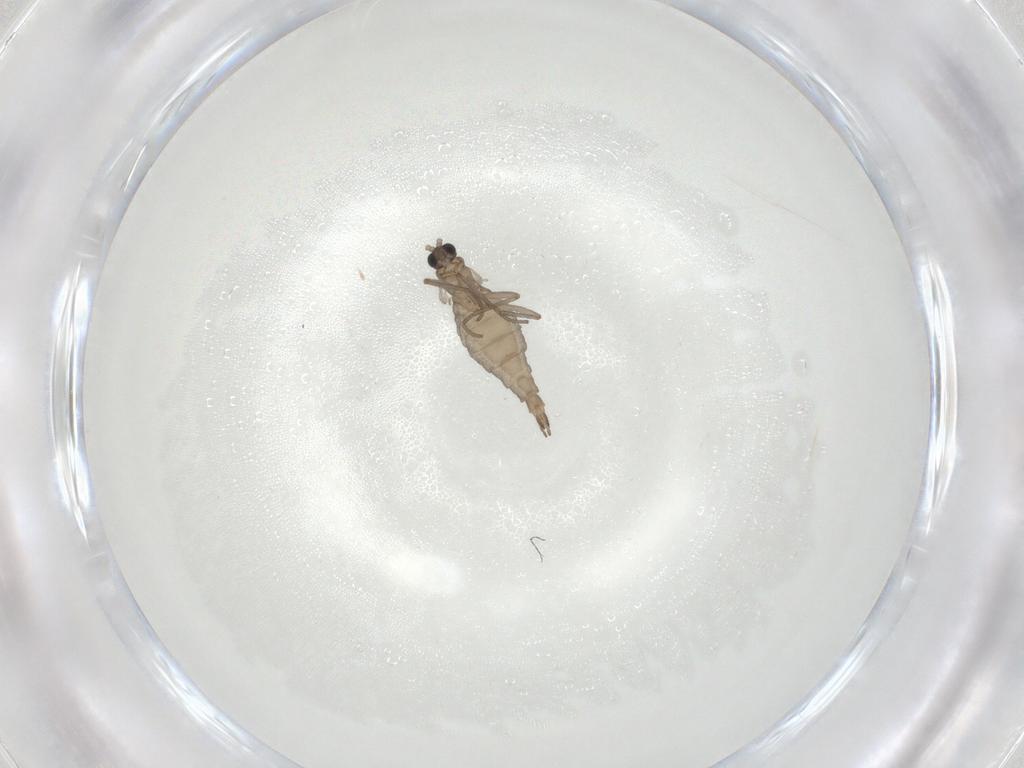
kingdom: Animalia
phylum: Arthropoda
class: Insecta
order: Diptera
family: Sciaridae
